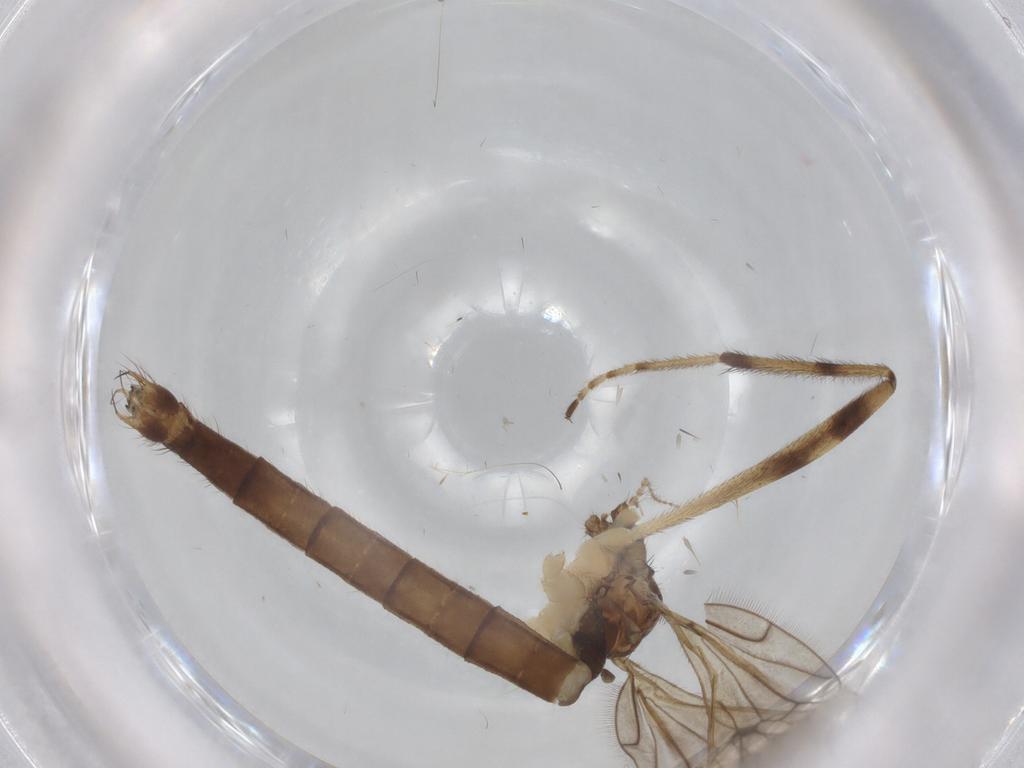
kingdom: Animalia
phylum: Arthropoda
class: Insecta
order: Diptera
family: Limoniidae
